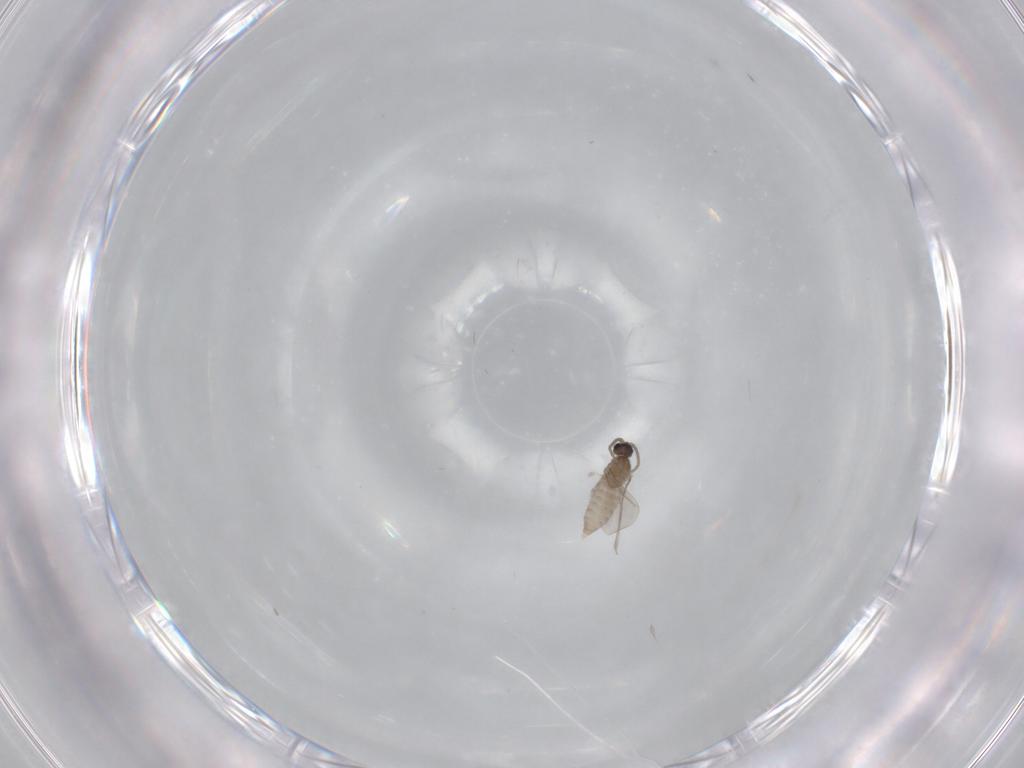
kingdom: Animalia
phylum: Arthropoda
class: Insecta
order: Diptera
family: Cecidomyiidae
